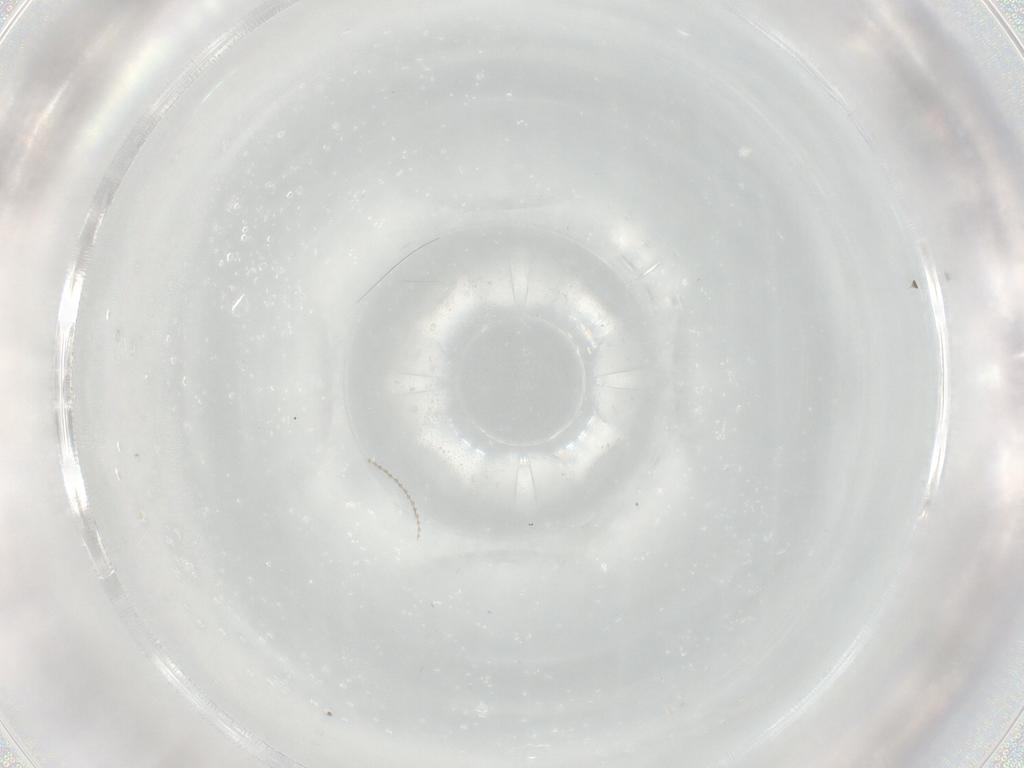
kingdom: Animalia
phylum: Arthropoda
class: Insecta
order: Diptera
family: Cecidomyiidae
